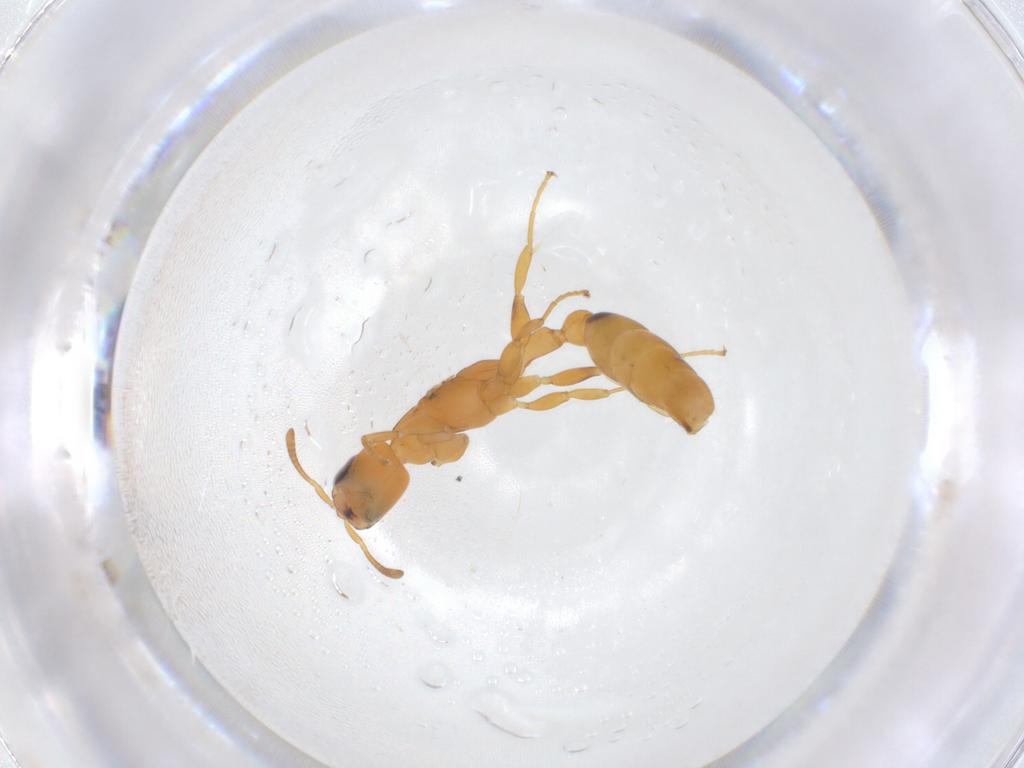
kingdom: Animalia
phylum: Arthropoda
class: Insecta
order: Hymenoptera
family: Formicidae
